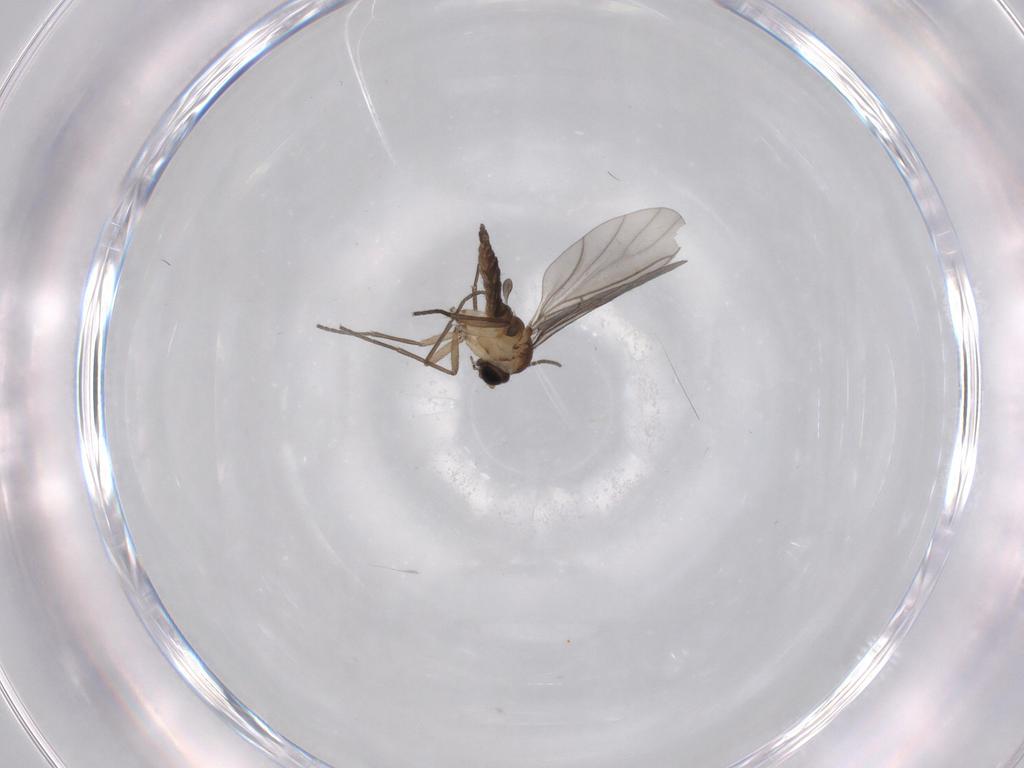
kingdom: Animalia
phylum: Arthropoda
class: Insecta
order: Diptera
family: Sciaridae
